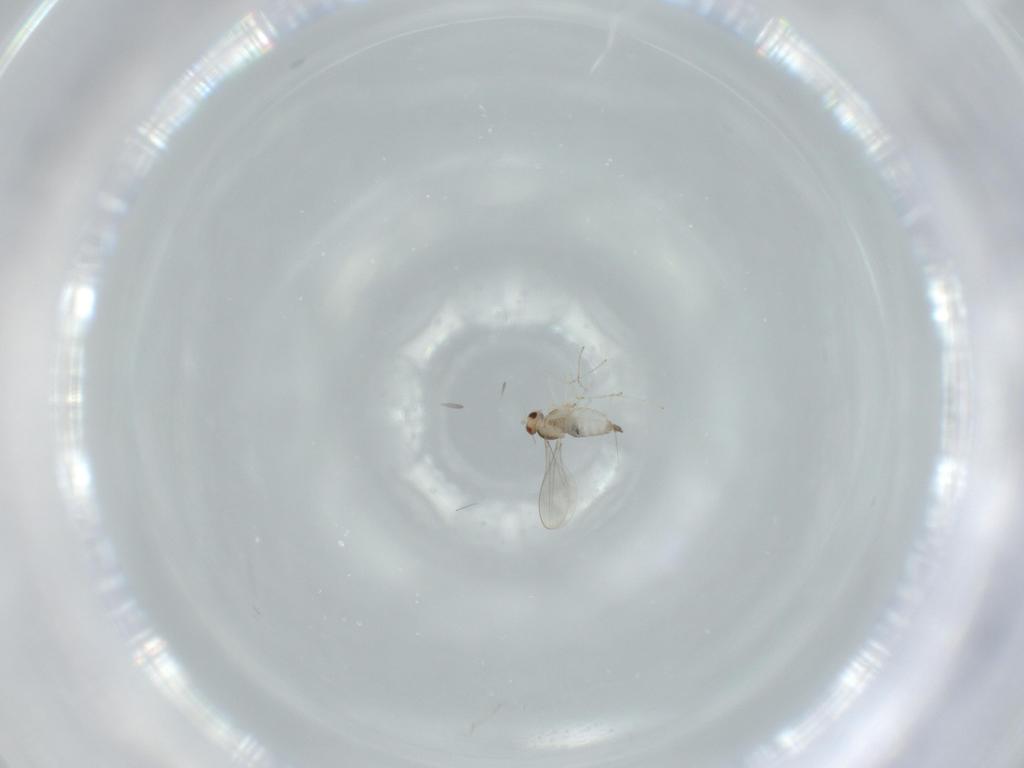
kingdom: Animalia
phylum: Arthropoda
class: Insecta
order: Diptera
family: Cecidomyiidae
